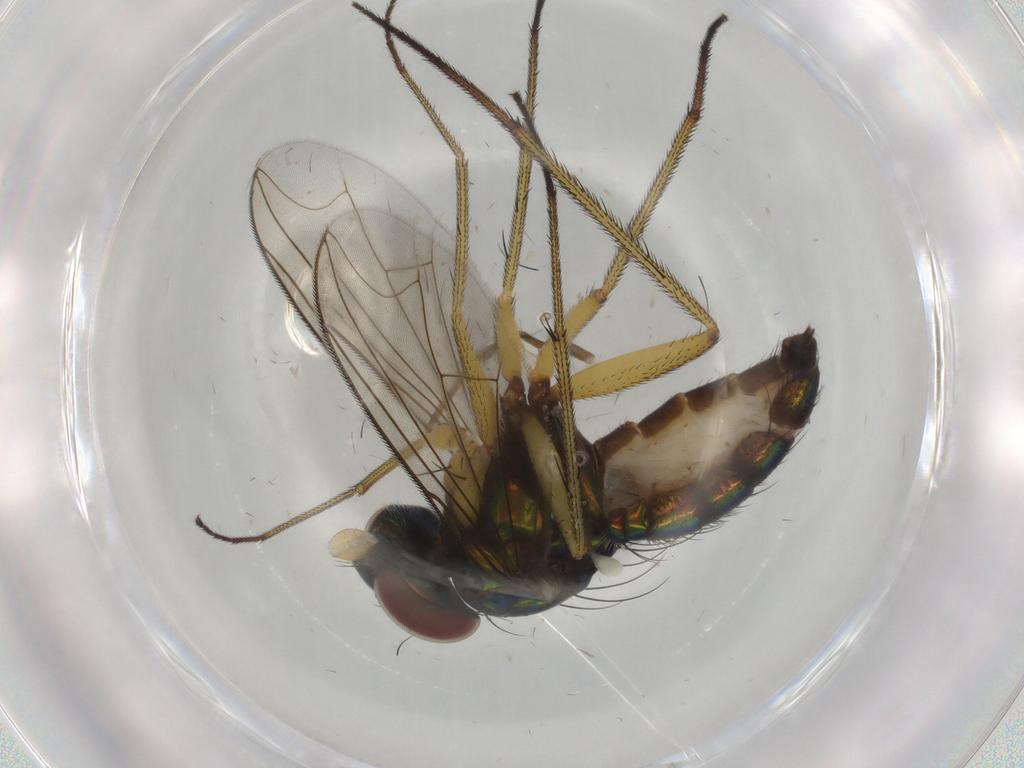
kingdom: Animalia
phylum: Arthropoda
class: Insecta
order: Diptera
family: Dolichopodidae
